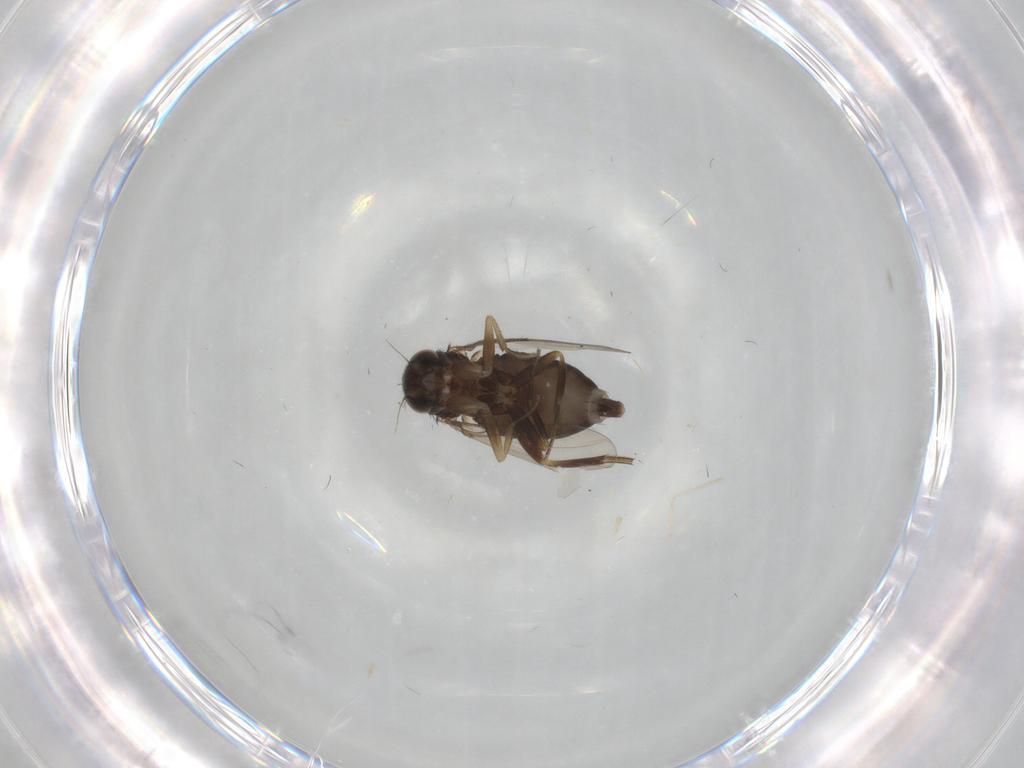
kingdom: Animalia
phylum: Arthropoda
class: Insecta
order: Diptera
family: Phoridae
